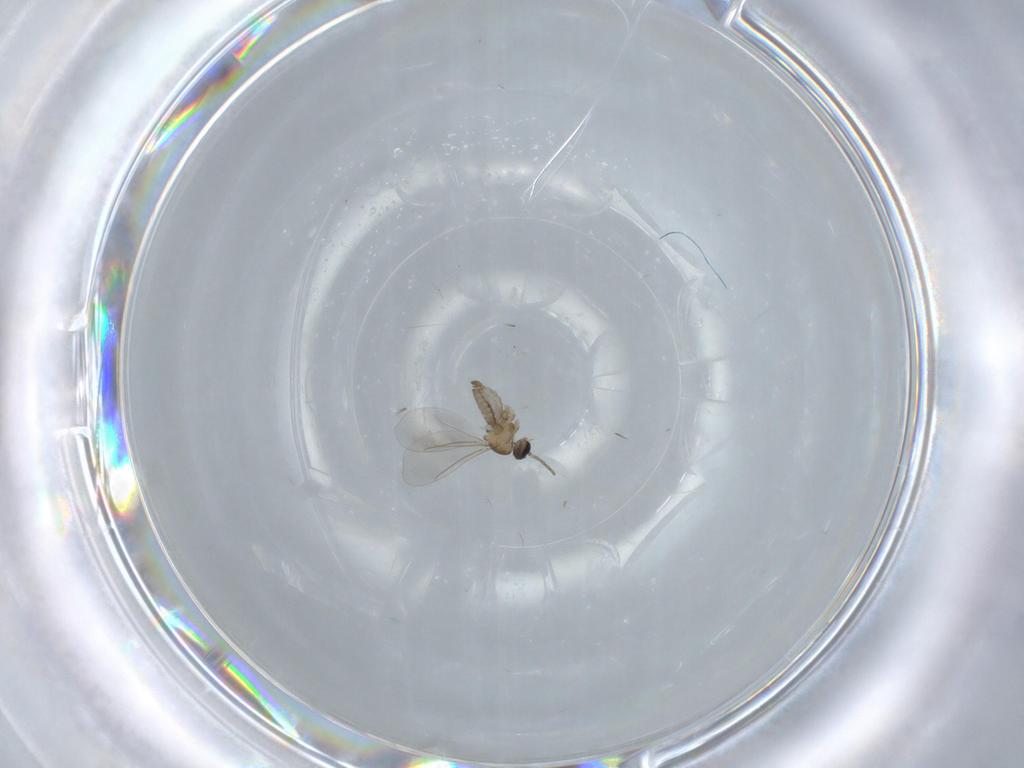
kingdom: Animalia
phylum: Arthropoda
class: Insecta
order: Diptera
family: Cecidomyiidae
